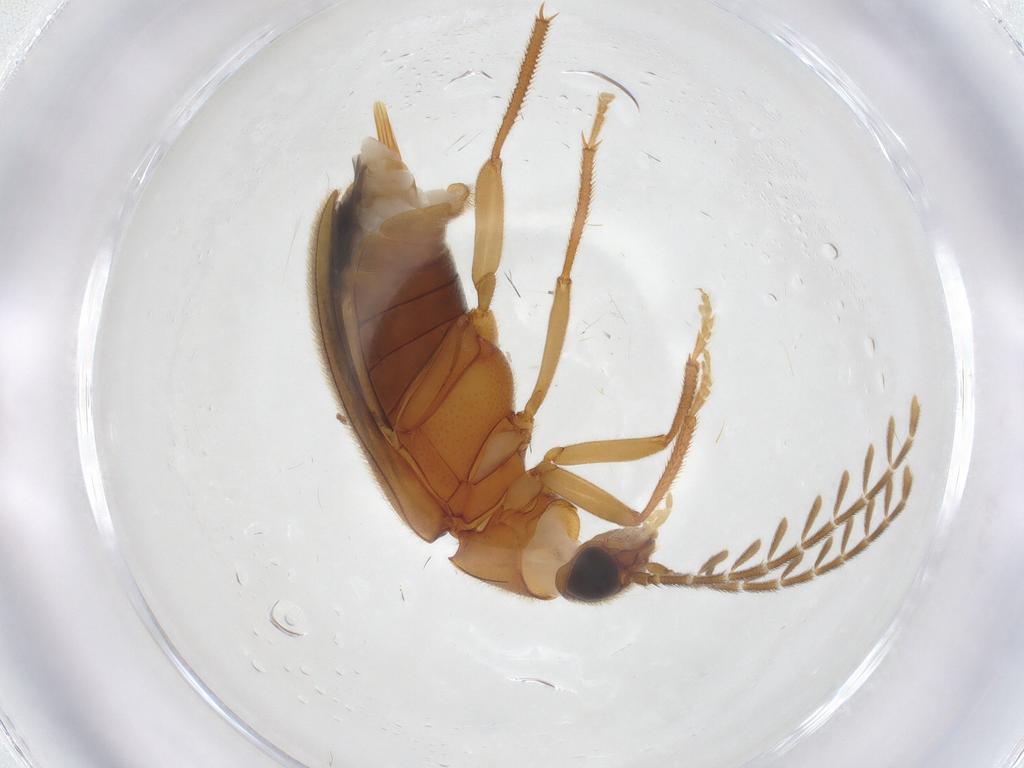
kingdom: Animalia
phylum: Arthropoda
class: Insecta
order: Coleoptera
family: Ptilodactylidae
